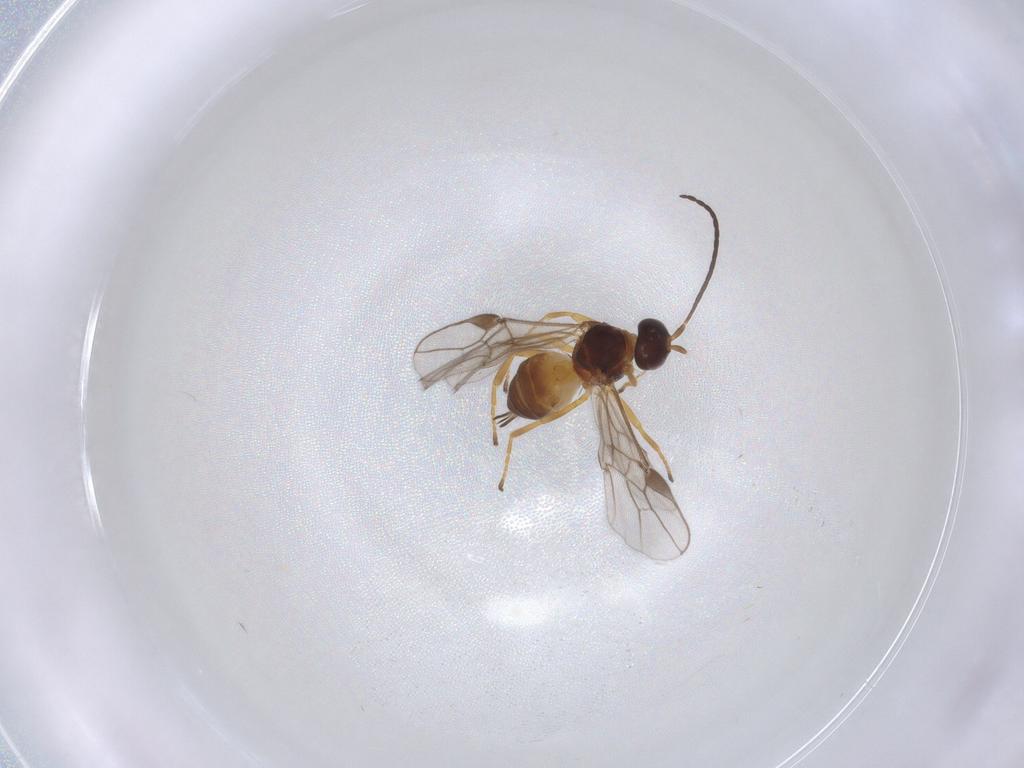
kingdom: Animalia
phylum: Arthropoda
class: Insecta
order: Hymenoptera
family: Braconidae
